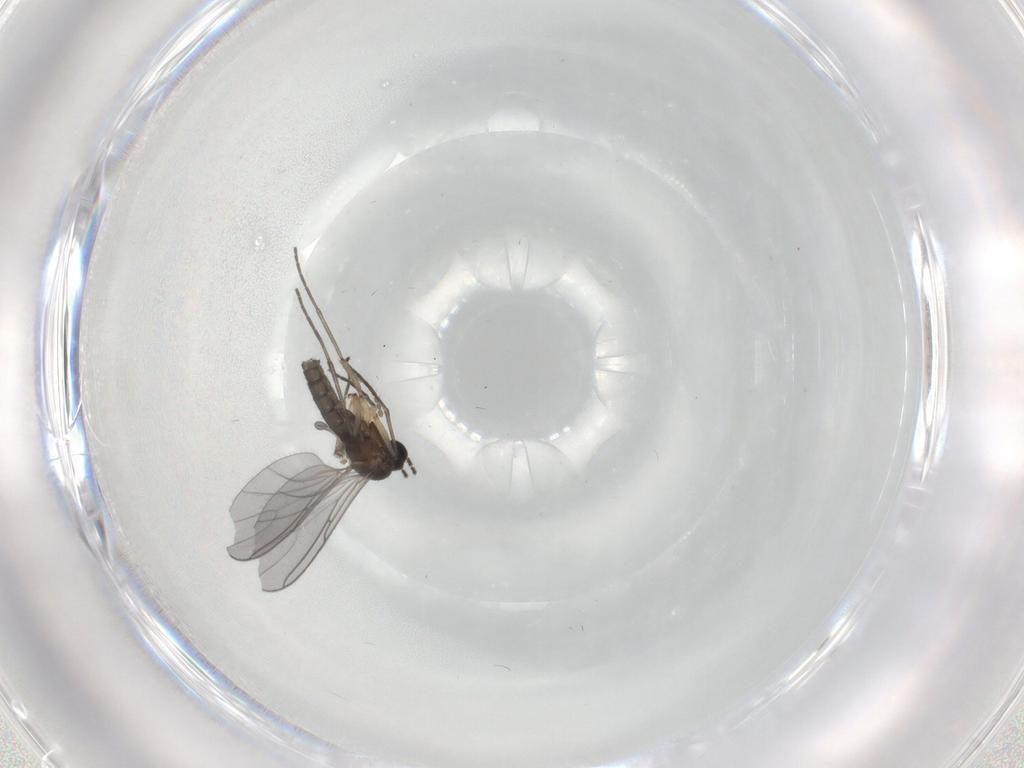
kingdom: Animalia
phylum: Arthropoda
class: Insecta
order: Diptera
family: Sciaridae
